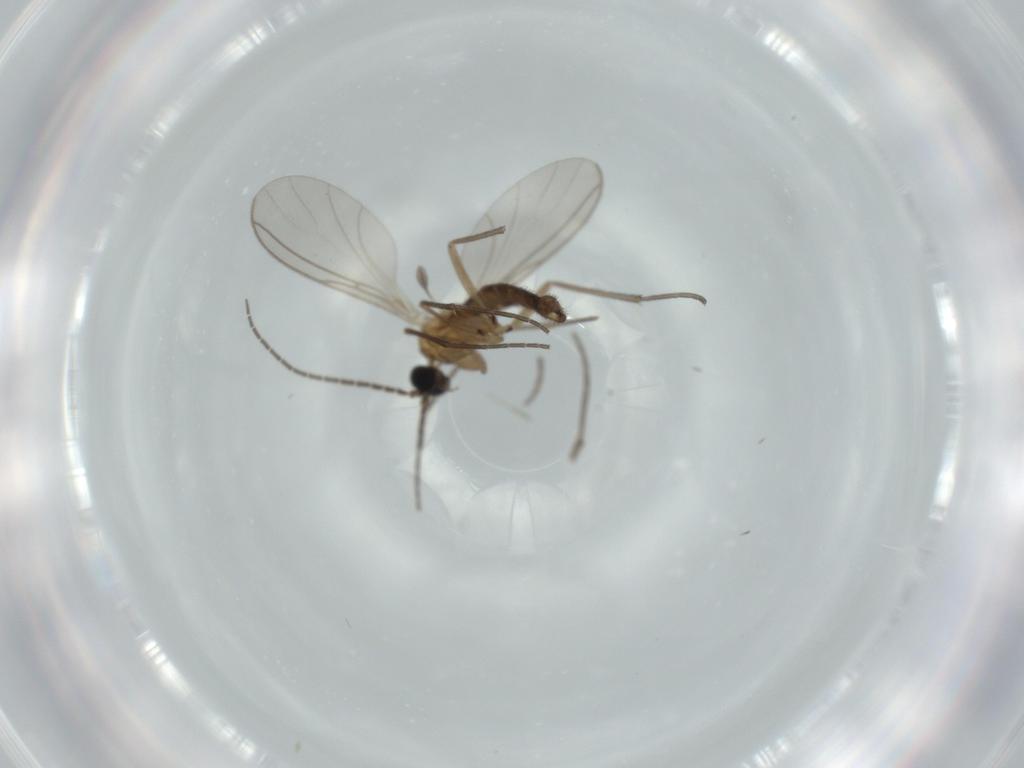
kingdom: Animalia
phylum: Arthropoda
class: Insecta
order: Diptera
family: Sciaridae
